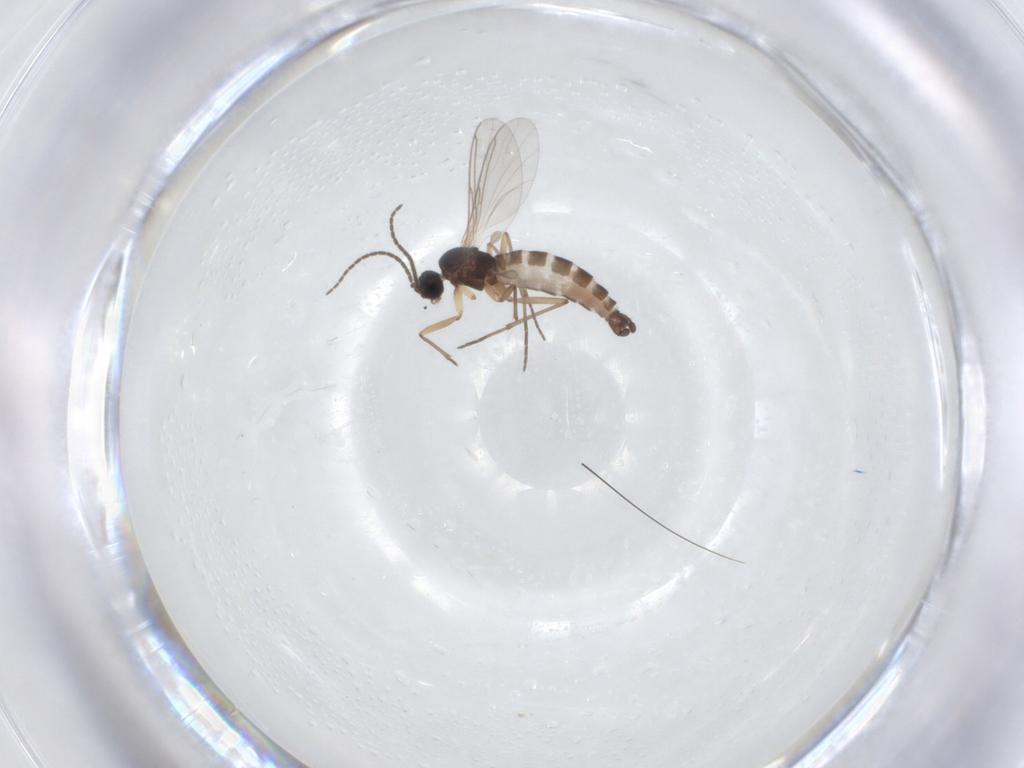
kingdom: Animalia
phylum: Arthropoda
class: Insecta
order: Diptera
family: Sciaridae
